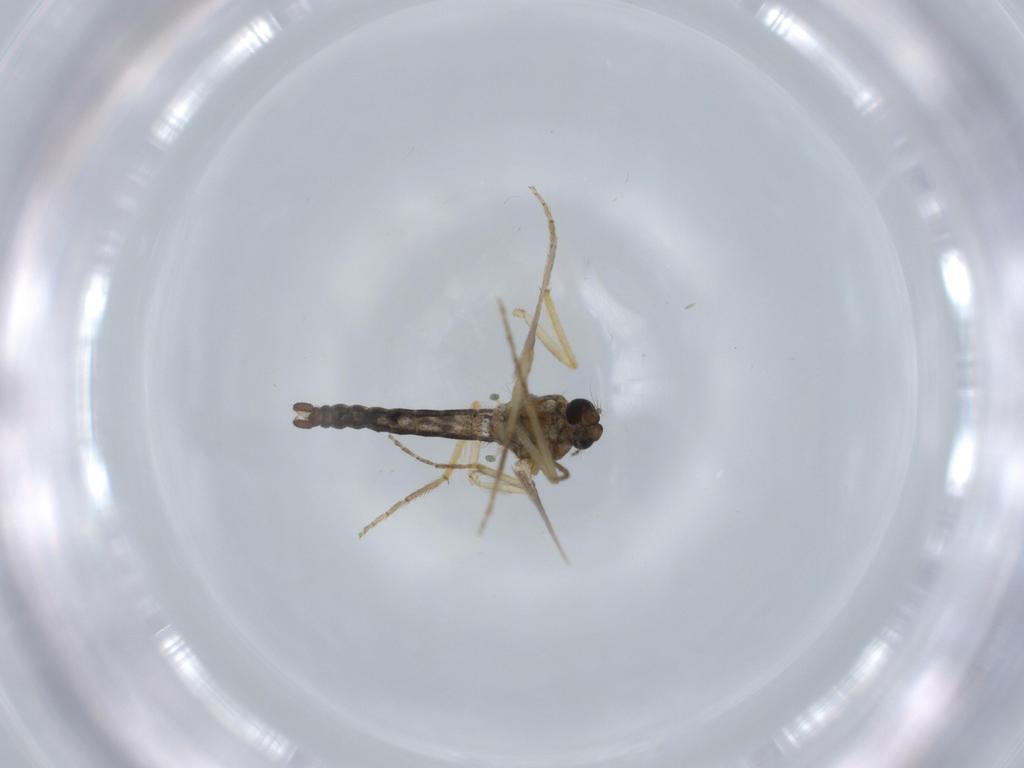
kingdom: Animalia
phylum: Arthropoda
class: Insecta
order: Diptera
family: Ceratopogonidae
